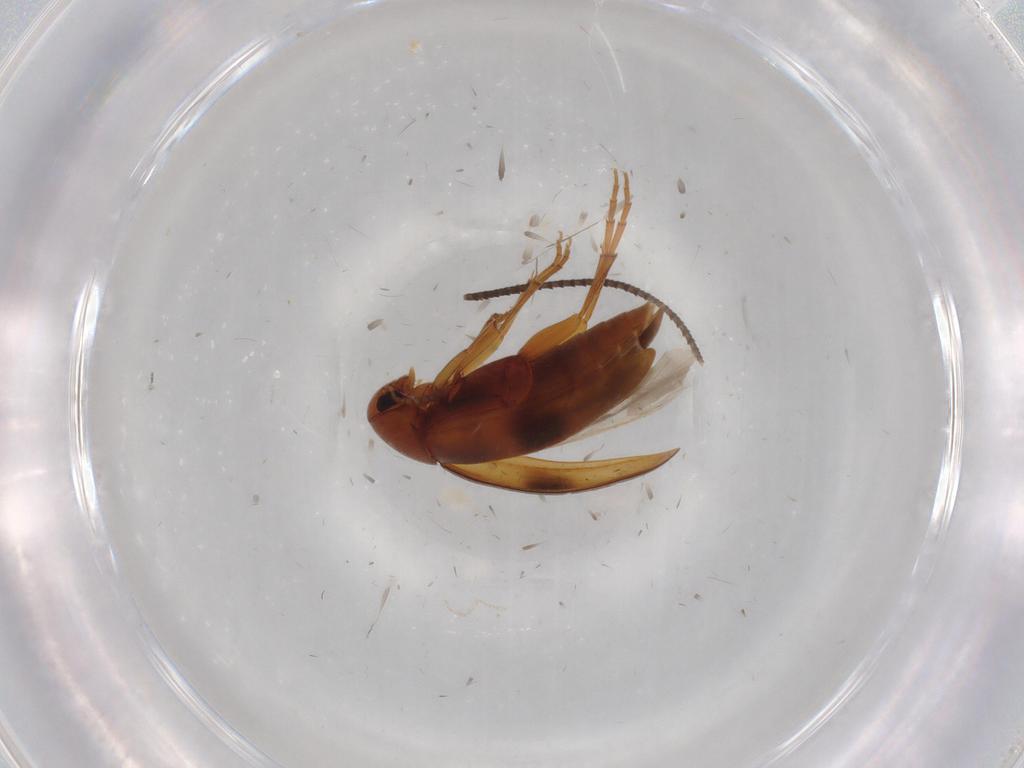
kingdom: Animalia
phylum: Arthropoda
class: Insecta
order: Coleoptera
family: Scraptiidae
